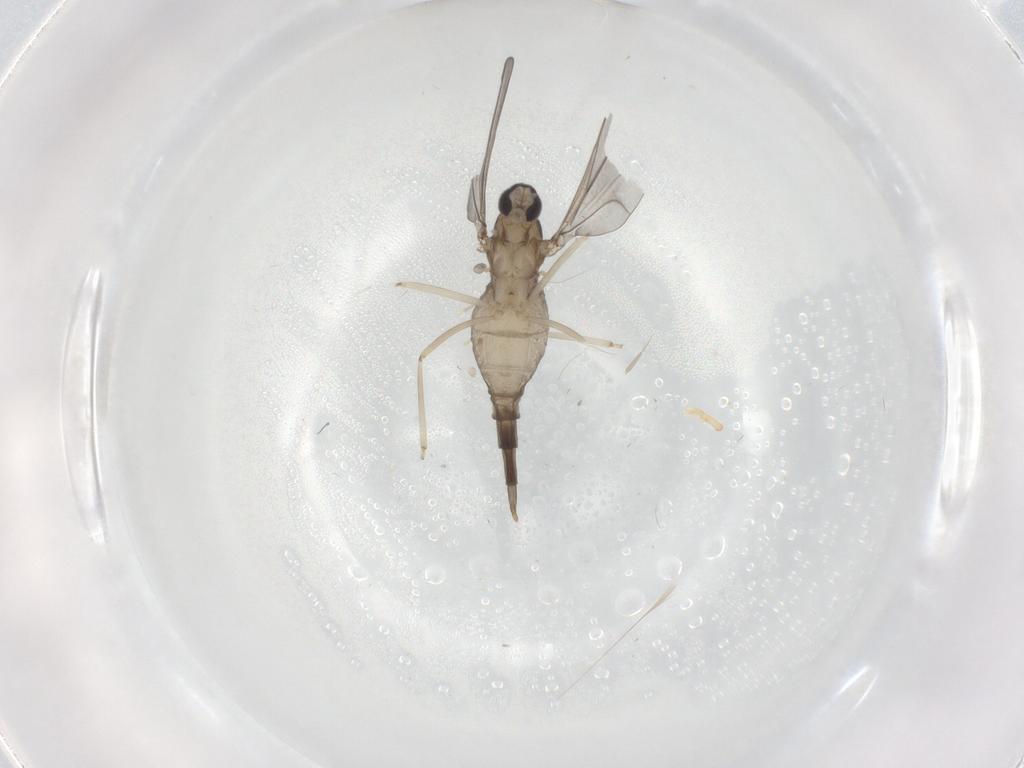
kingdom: Animalia
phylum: Arthropoda
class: Insecta
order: Diptera
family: Cecidomyiidae
